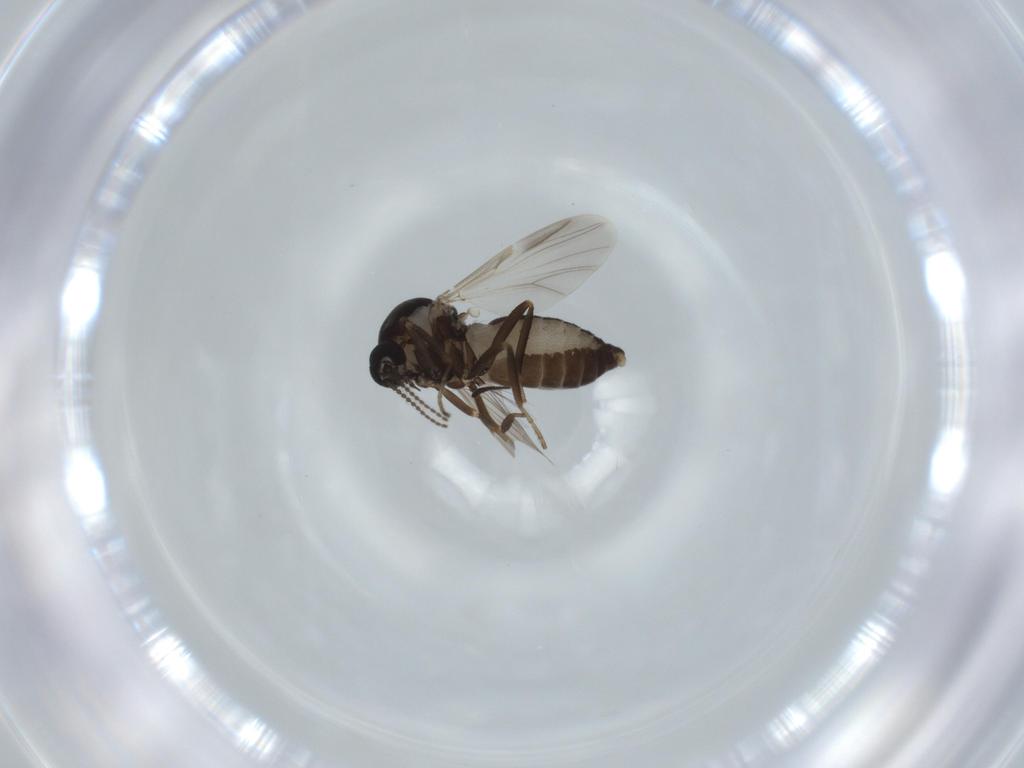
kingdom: Animalia
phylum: Arthropoda
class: Insecta
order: Diptera
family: Ceratopogonidae
